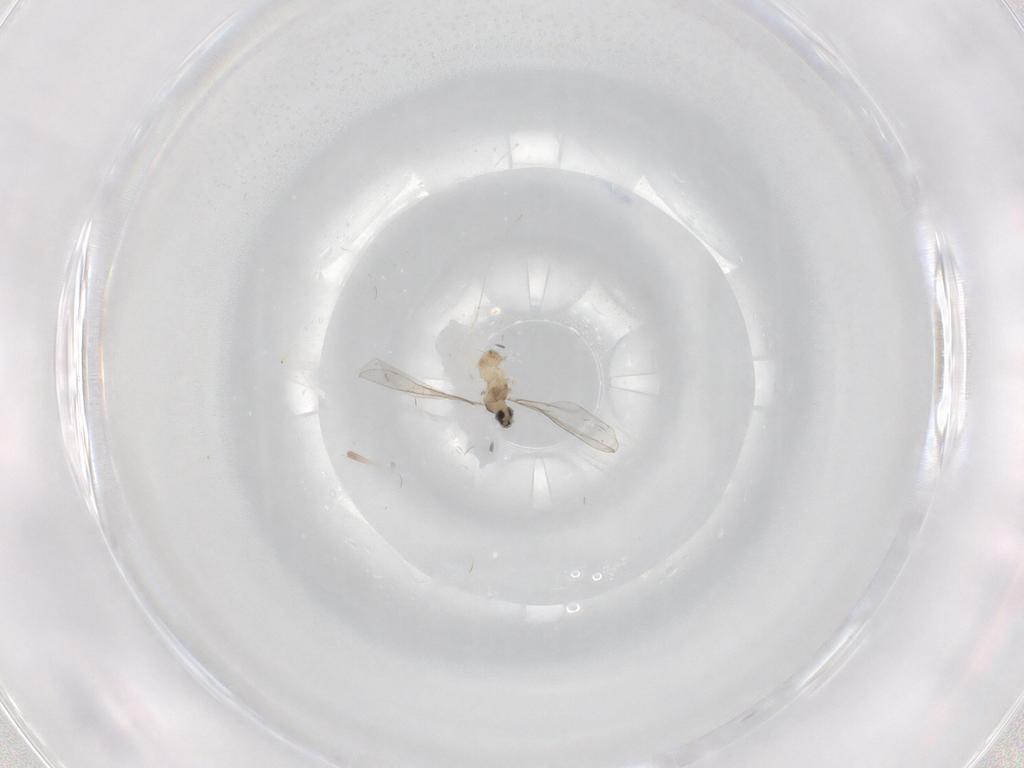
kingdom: Animalia
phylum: Arthropoda
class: Insecta
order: Diptera
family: Cecidomyiidae
